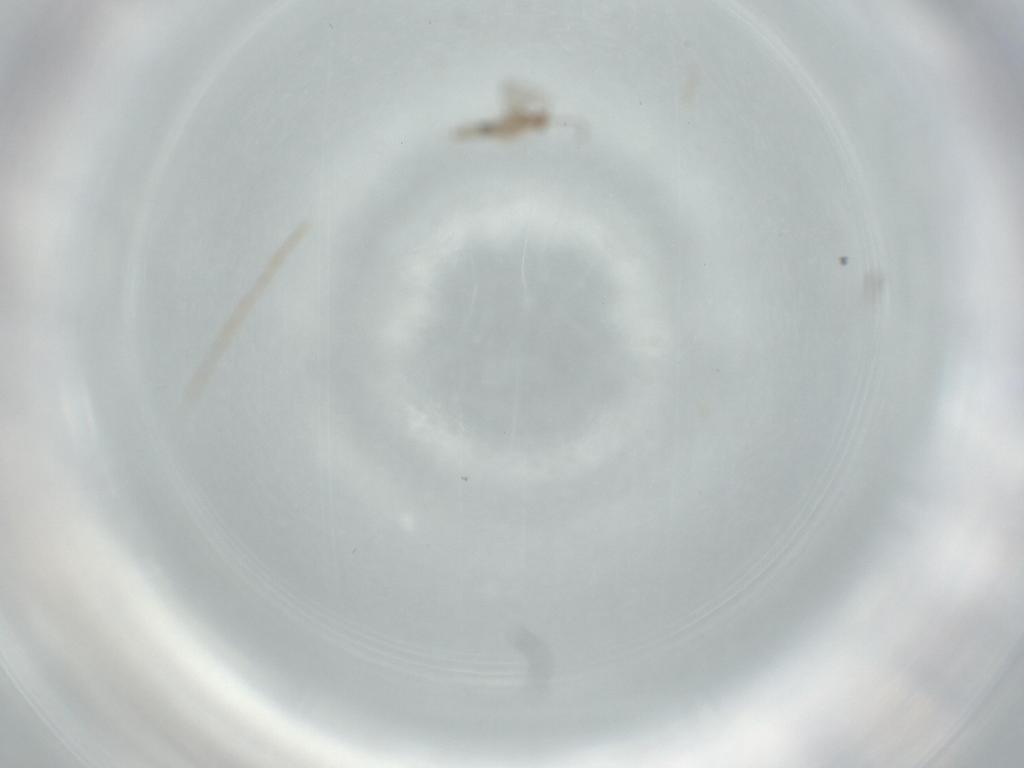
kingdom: Animalia
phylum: Arthropoda
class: Insecta
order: Diptera
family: Cecidomyiidae
